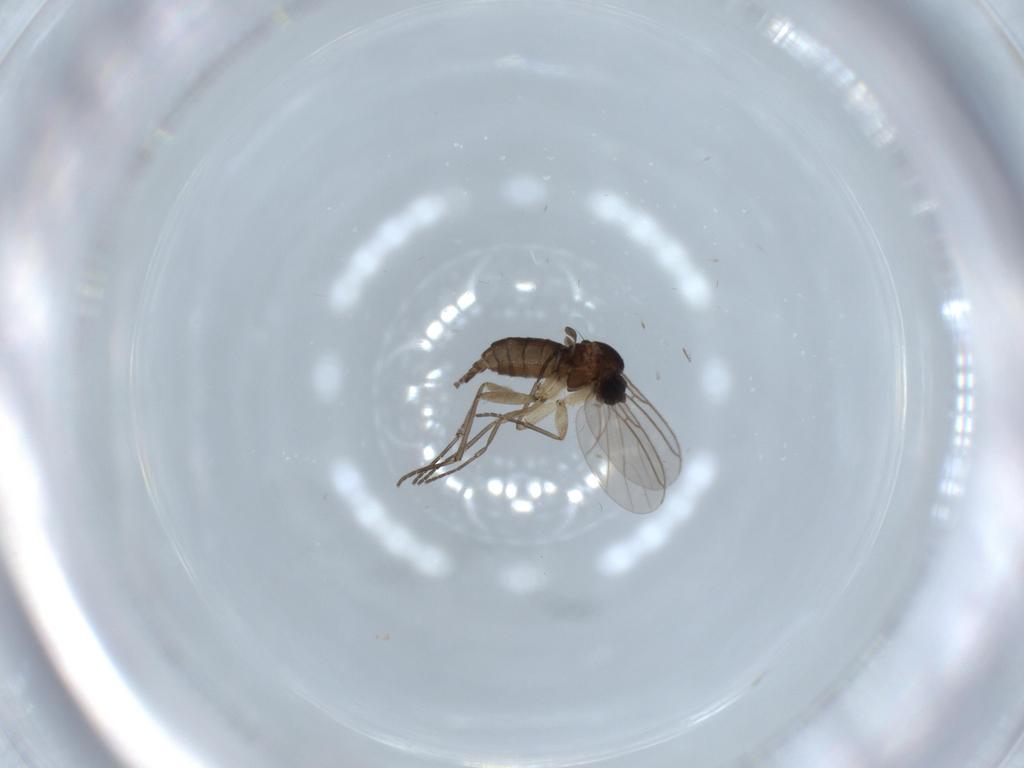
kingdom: Animalia
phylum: Arthropoda
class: Insecta
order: Diptera
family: Sciaridae
